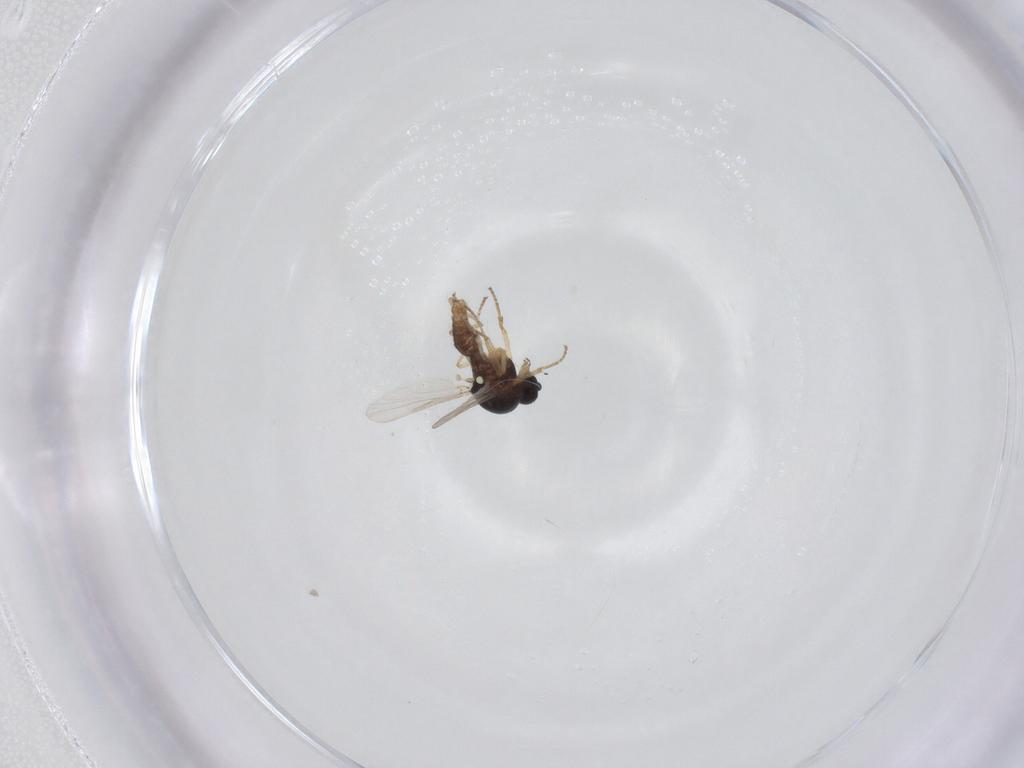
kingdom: Animalia
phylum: Arthropoda
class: Insecta
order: Diptera
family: Ceratopogonidae
